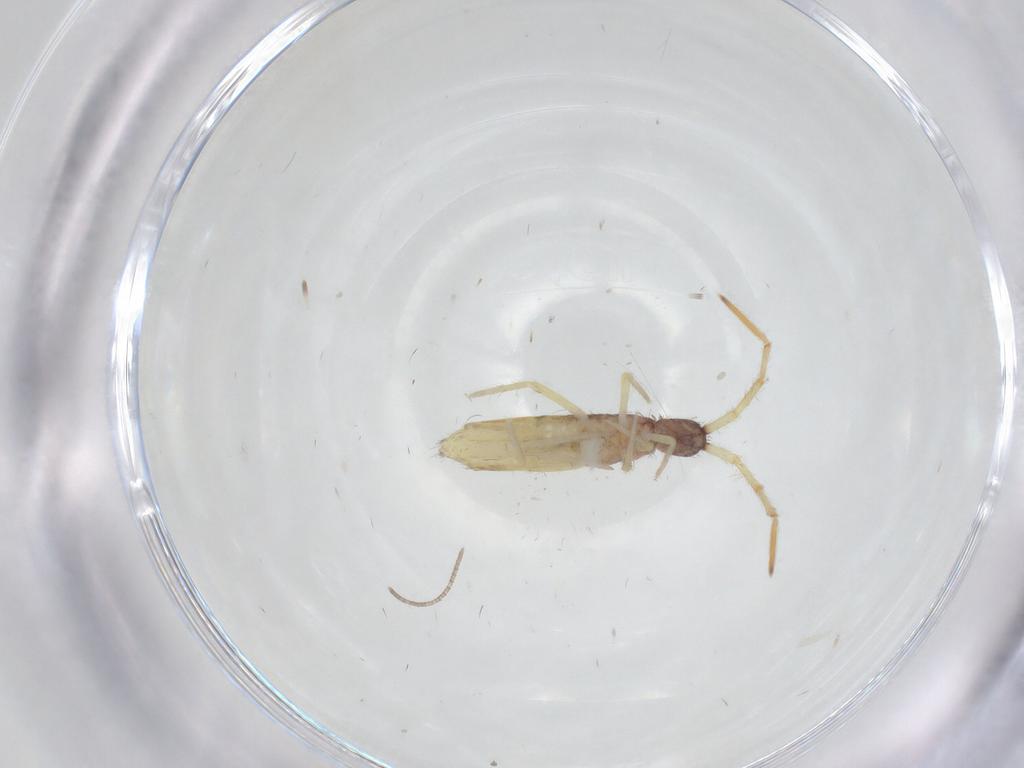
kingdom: Animalia
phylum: Arthropoda
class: Collembola
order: Entomobryomorpha
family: Entomobryidae
